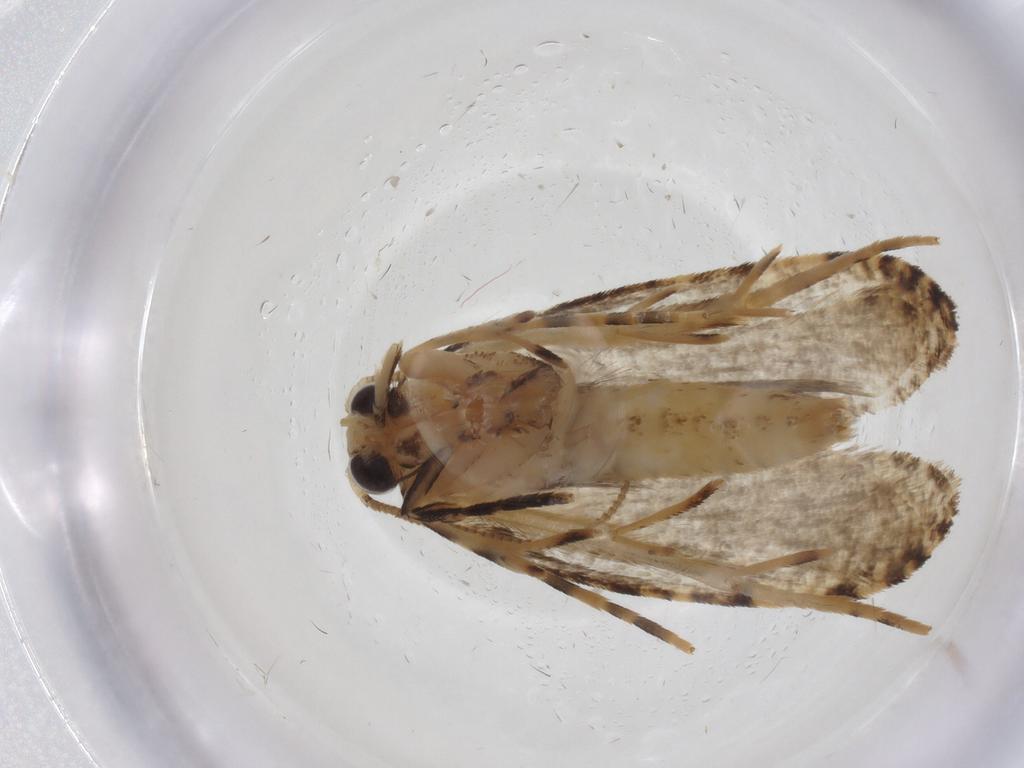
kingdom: Animalia
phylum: Arthropoda
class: Insecta
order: Lepidoptera
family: Tineidae
